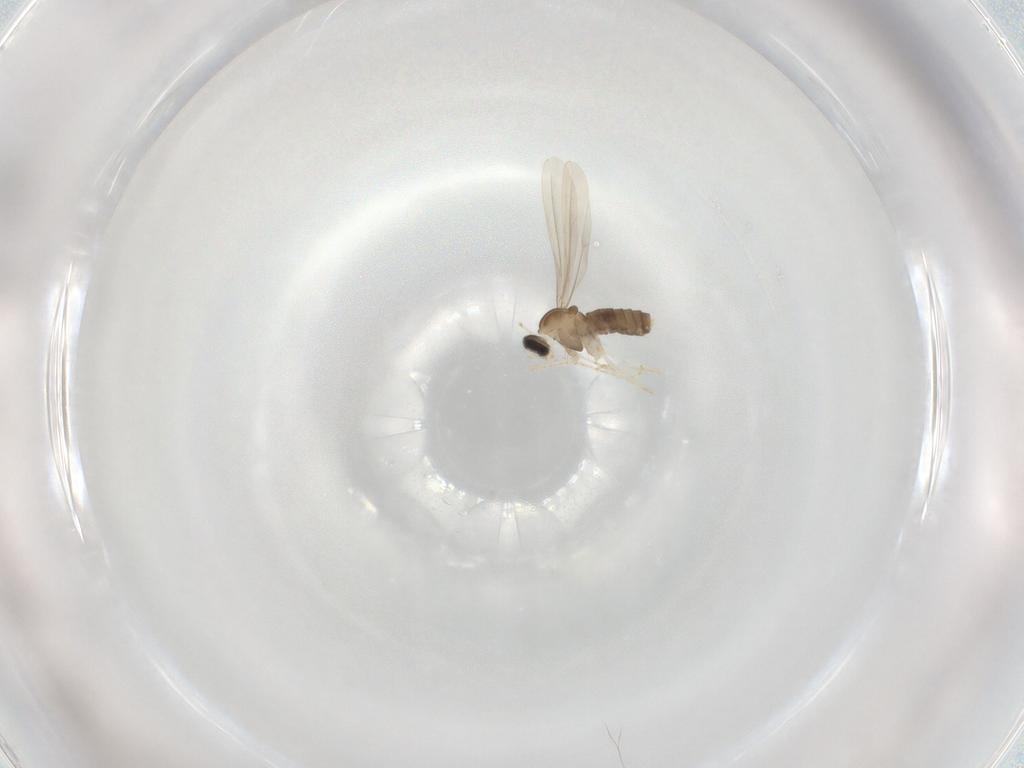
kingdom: Animalia
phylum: Arthropoda
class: Insecta
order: Diptera
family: Cecidomyiidae
